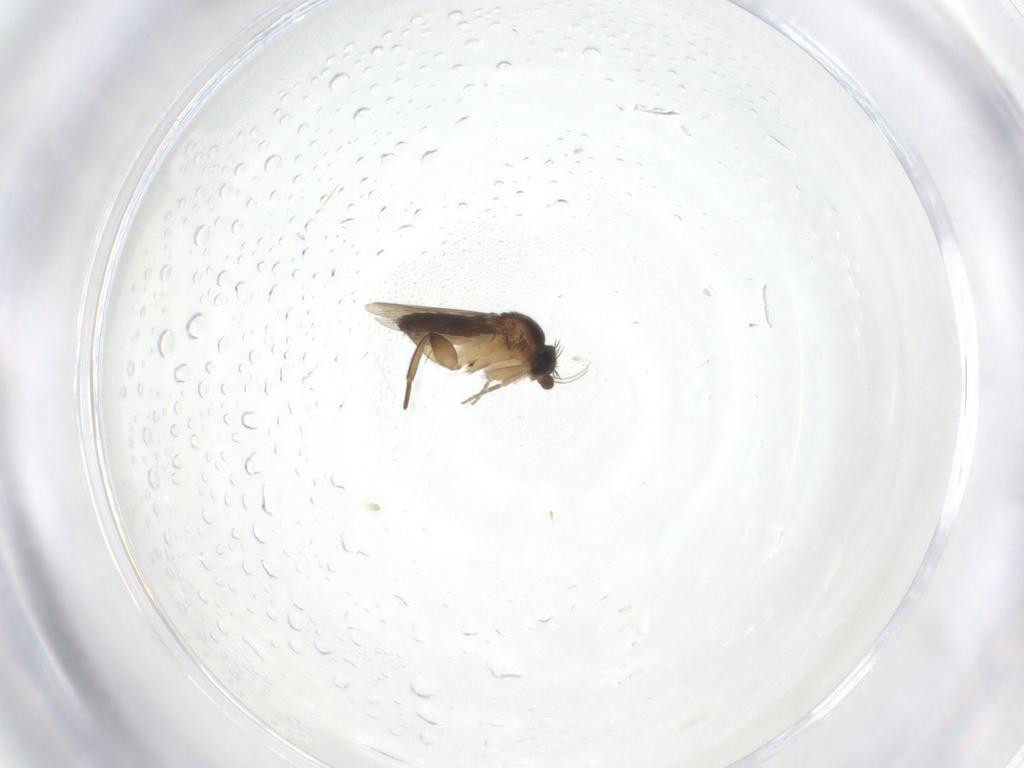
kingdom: Animalia
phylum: Arthropoda
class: Insecta
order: Diptera
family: Phoridae
